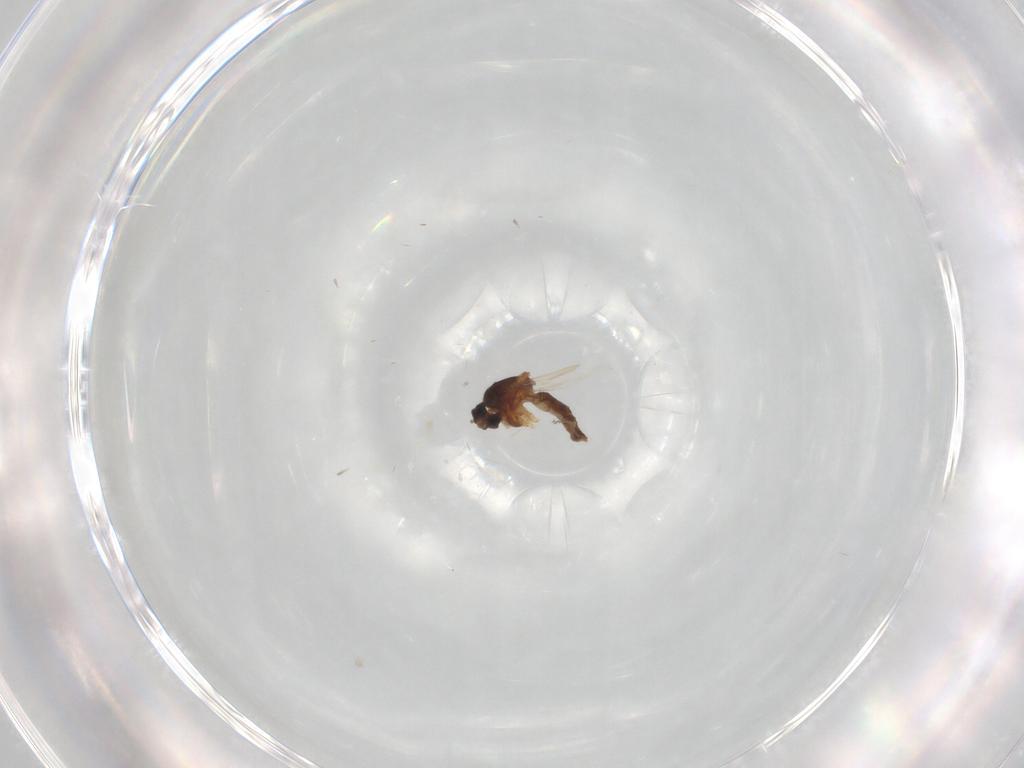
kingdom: Animalia
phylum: Arthropoda
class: Insecta
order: Diptera
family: Ceratopogonidae
